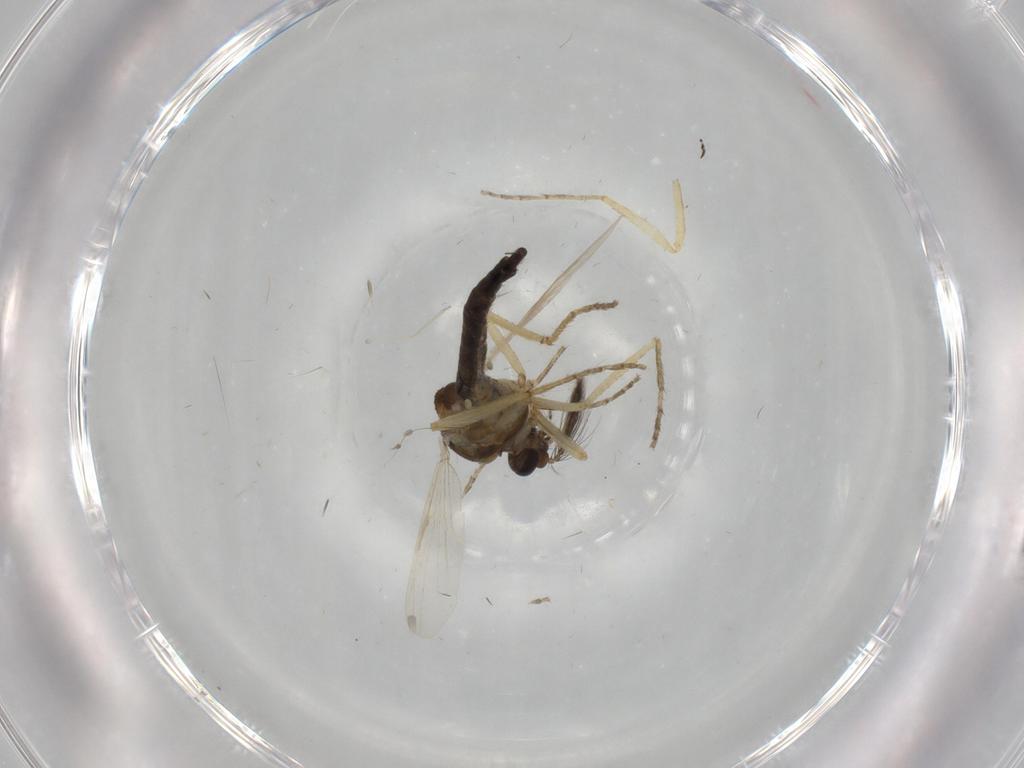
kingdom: Animalia
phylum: Arthropoda
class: Insecta
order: Diptera
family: Ceratopogonidae
